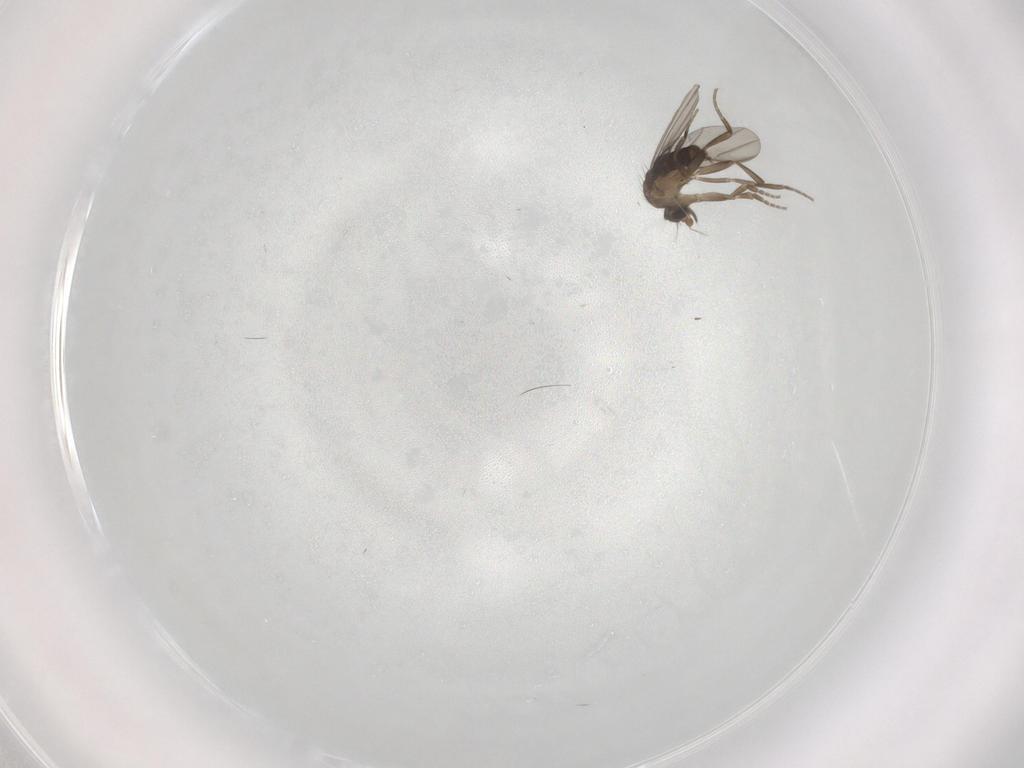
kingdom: Animalia
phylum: Arthropoda
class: Insecta
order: Diptera
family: Phoridae
